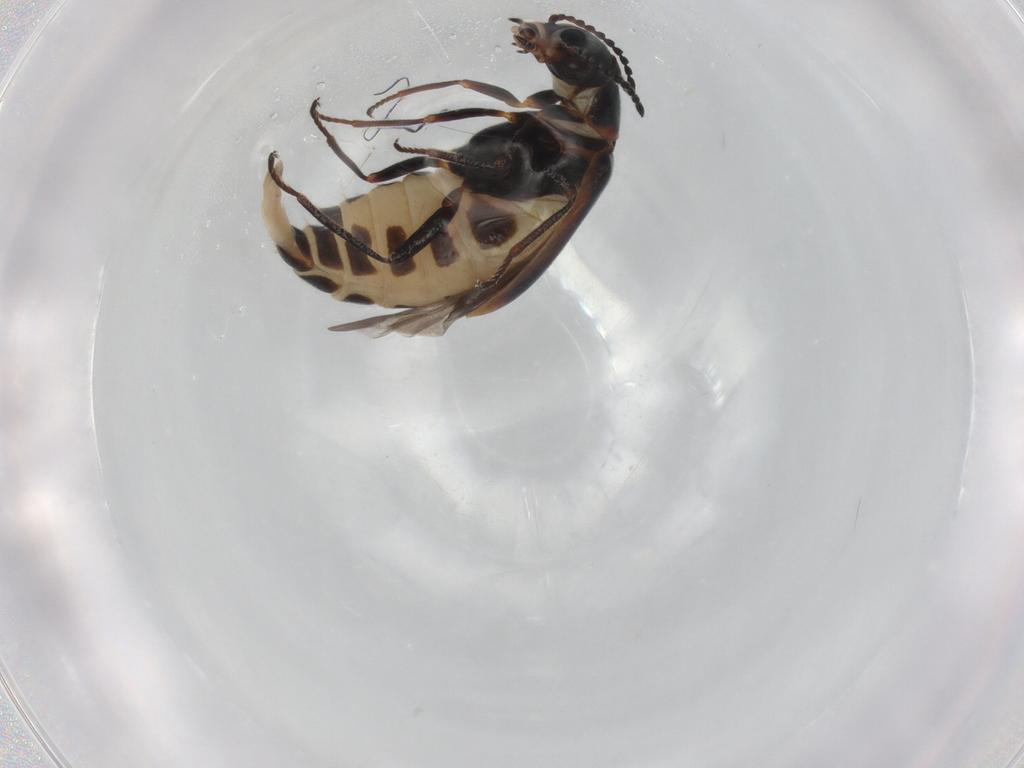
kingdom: Animalia
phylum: Arthropoda
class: Insecta
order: Coleoptera
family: Melyridae
